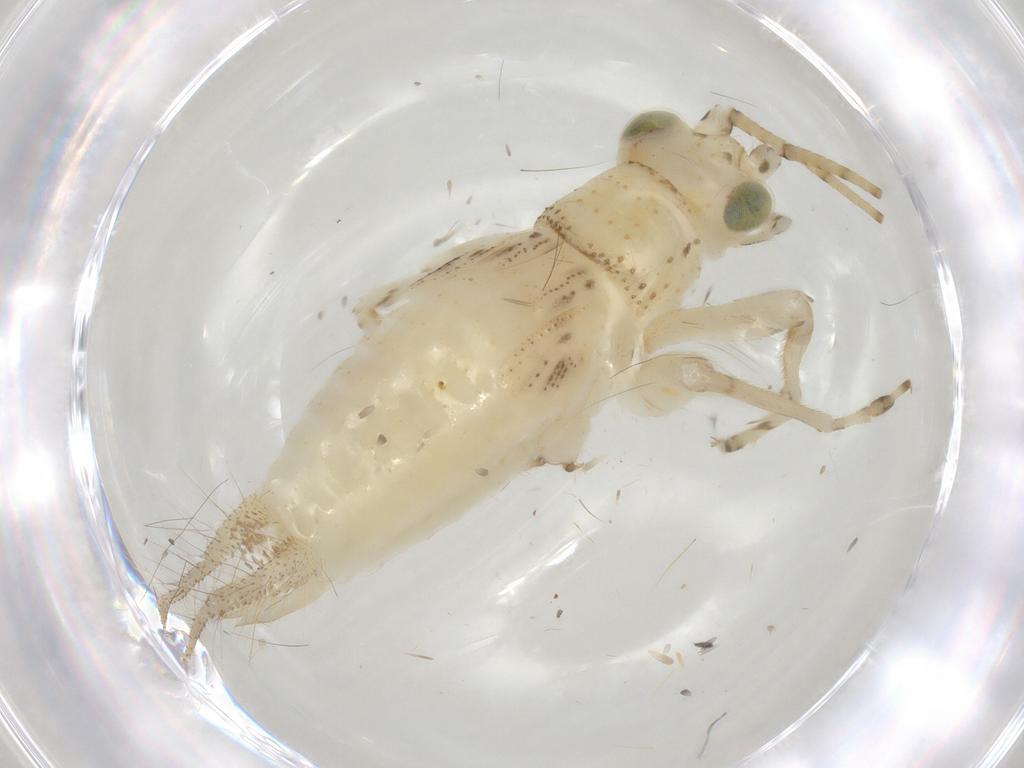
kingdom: Animalia
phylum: Arthropoda
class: Insecta
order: Orthoptera
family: Trigonidiidae
